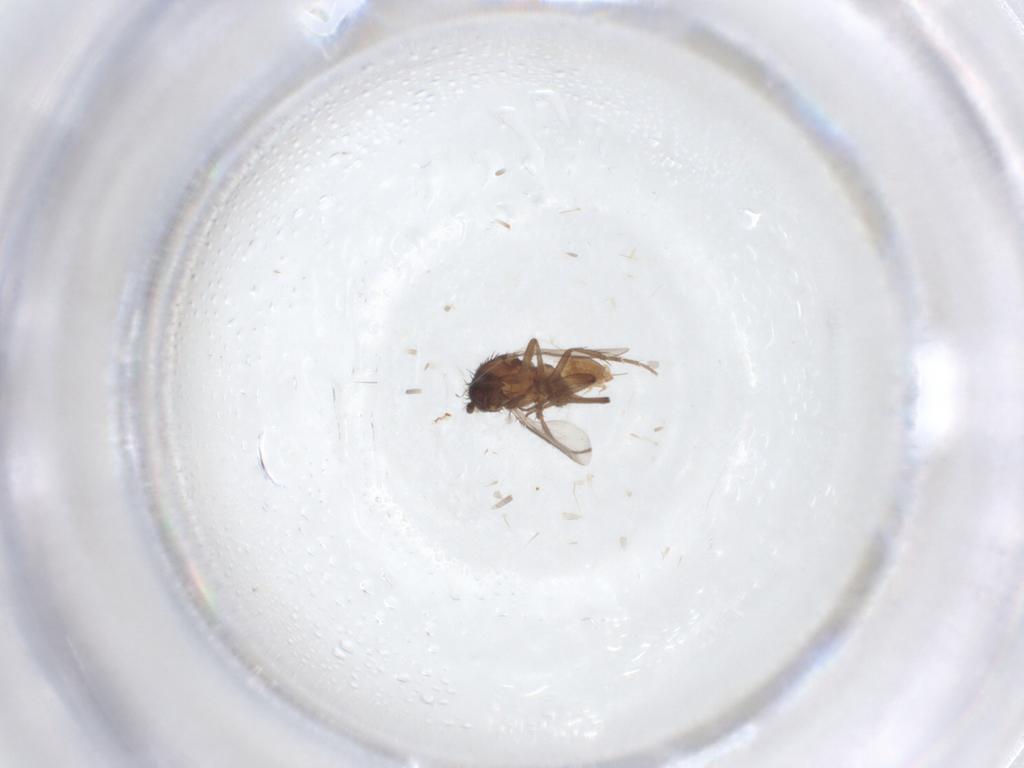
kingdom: Animalia
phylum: Arthropoda
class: Insecta
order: Diptera
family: Sphaeroceridae
